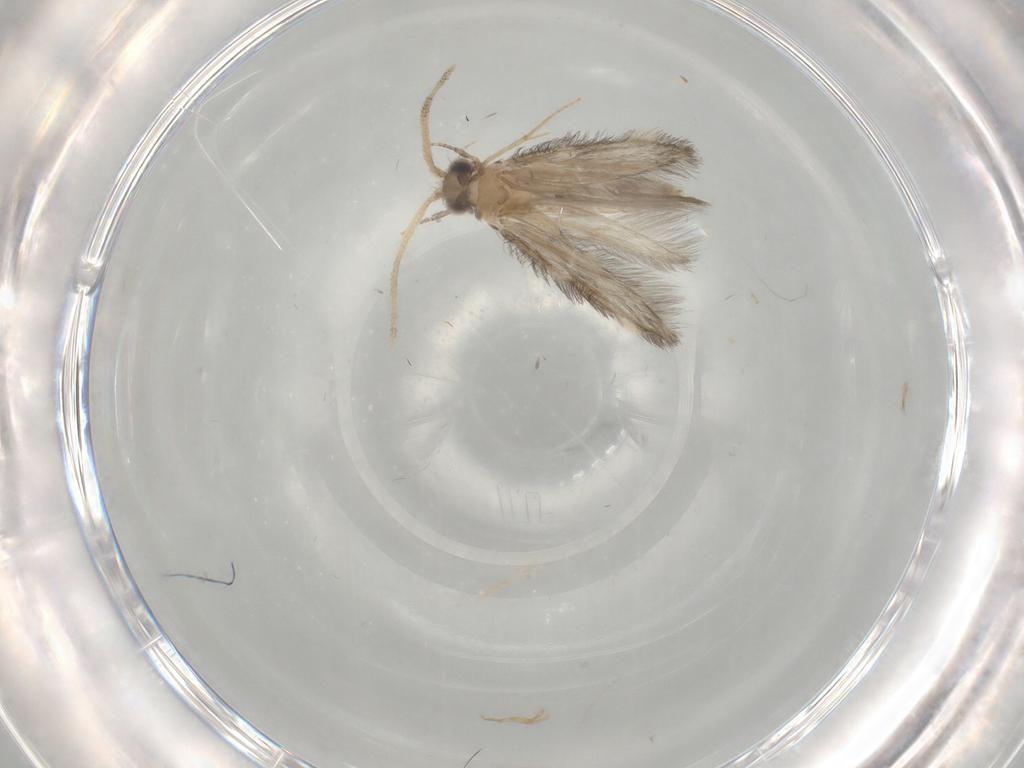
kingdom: Animalia
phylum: Arthropoda
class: Insecta
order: Trichoptera
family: Hydroptilidae
